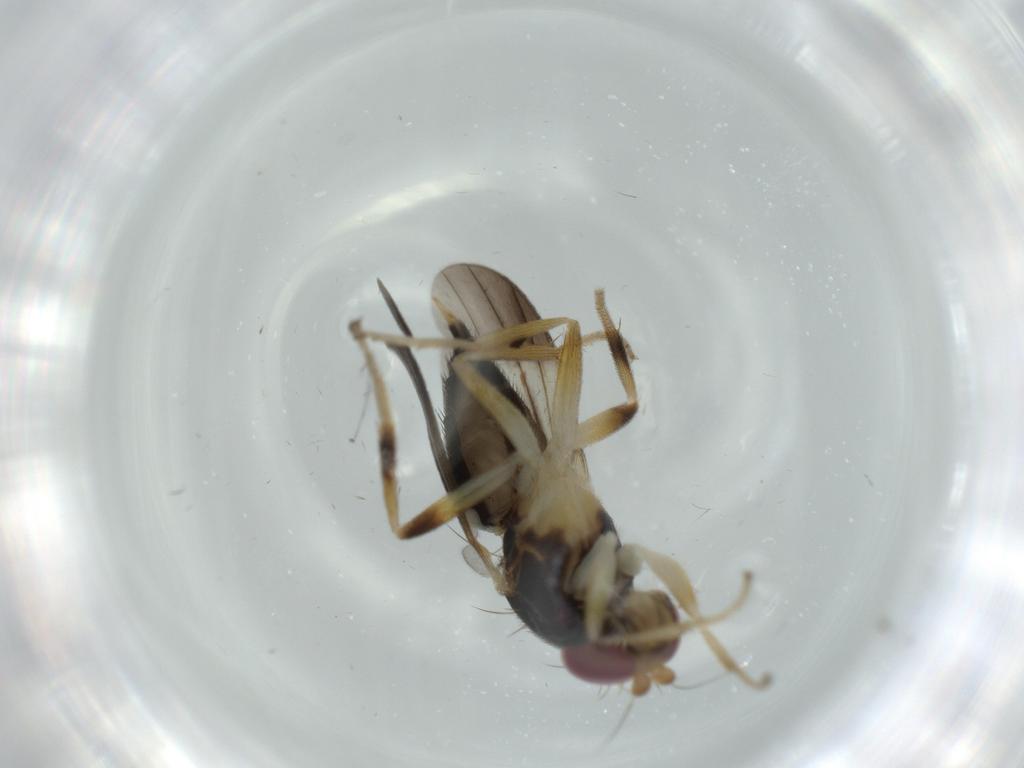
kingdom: Animalia
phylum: Arthropoda
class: Insecta
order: Diptera
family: Clusiidae
